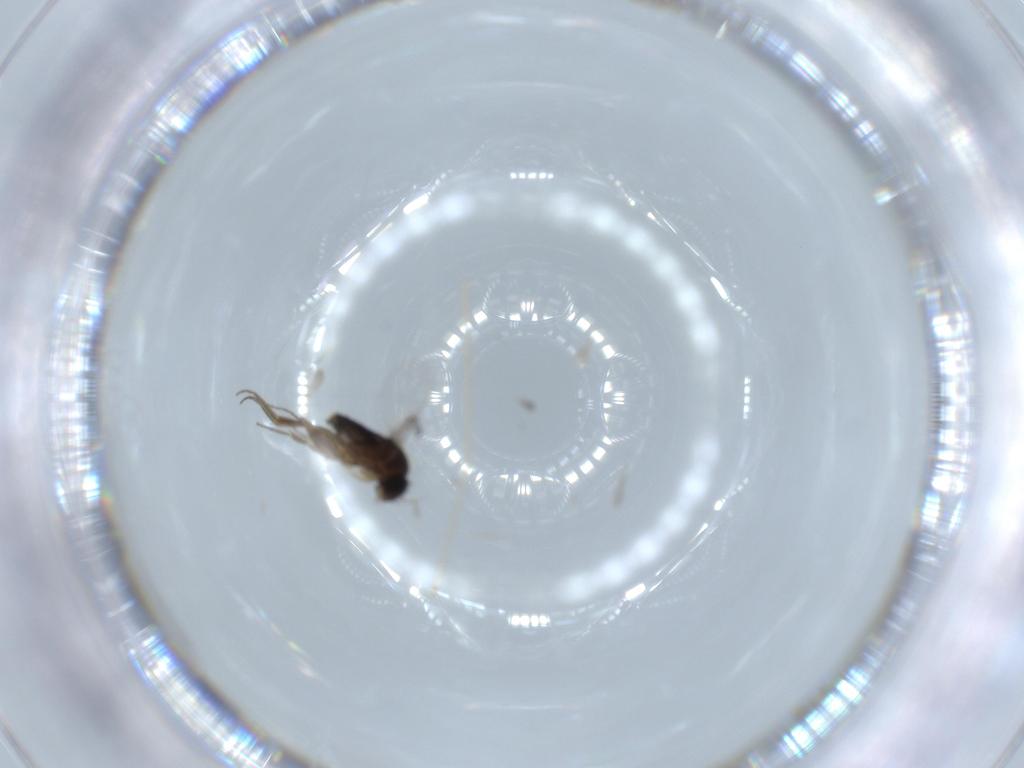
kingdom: Animalia
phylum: Arthropoda
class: Insecta
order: Diptera
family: Phoridae
